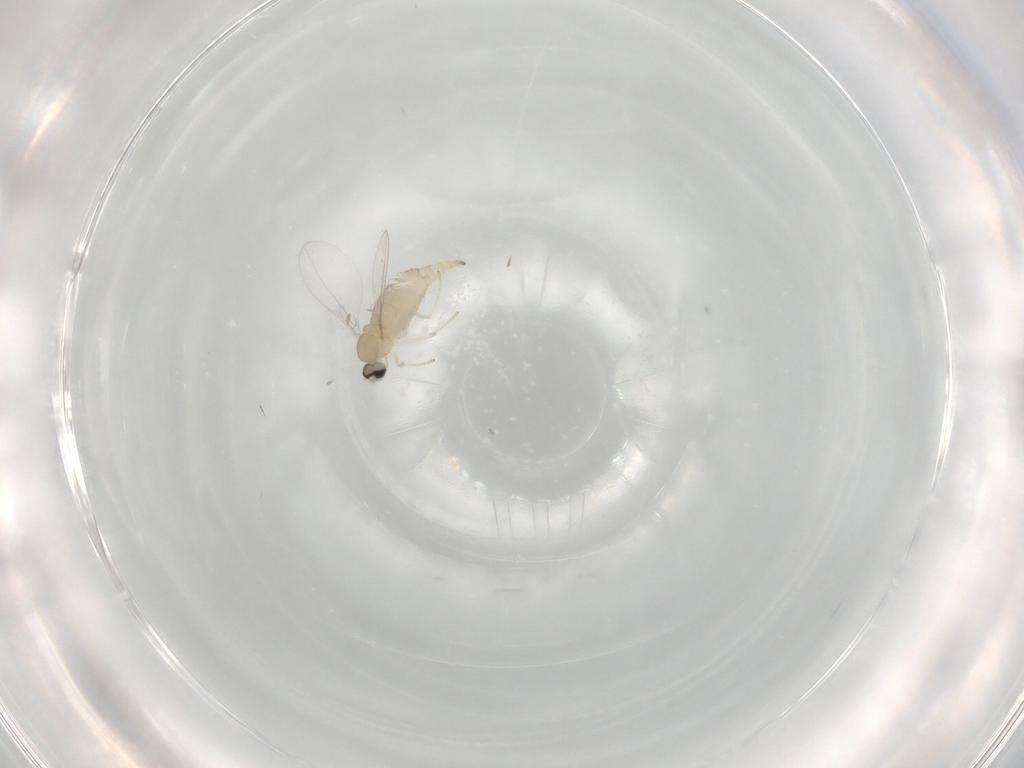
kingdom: Animalia
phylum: Arthropoda
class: Insecta
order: Diptera
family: Cecidomyiidae
